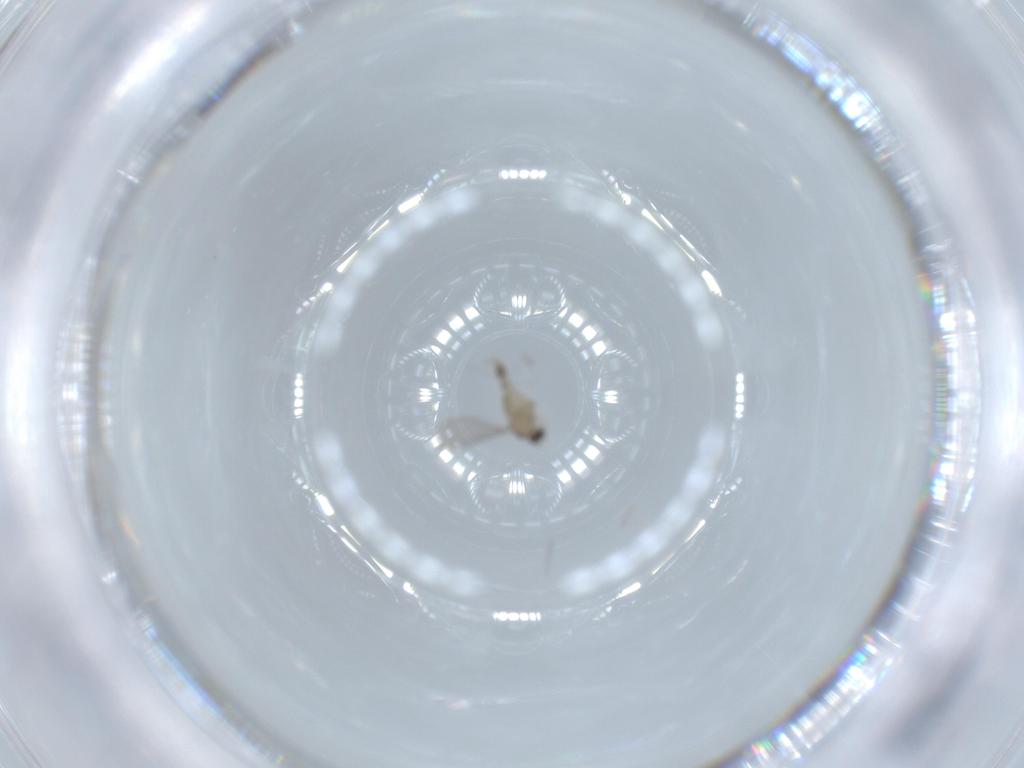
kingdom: Animalia
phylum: Arthropoda
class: Insecta
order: Diptera
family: Cecidomyiidae
